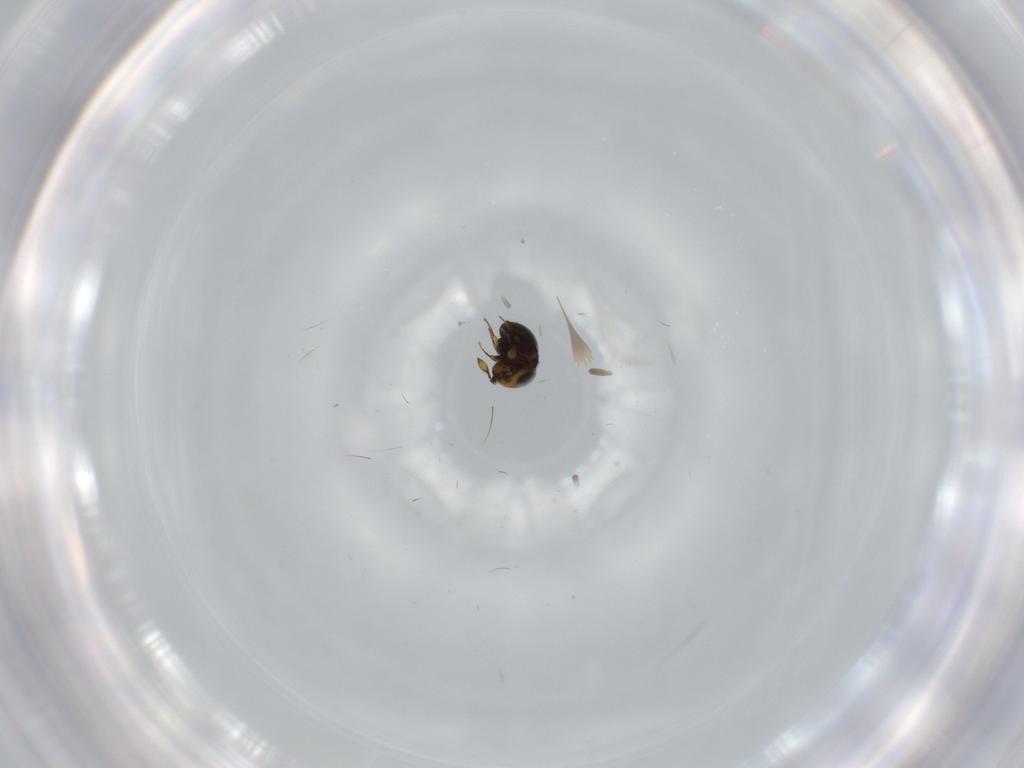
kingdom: Animalia
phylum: Arthropoda
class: Insecta
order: Hymenoptera
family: Scelionidae
